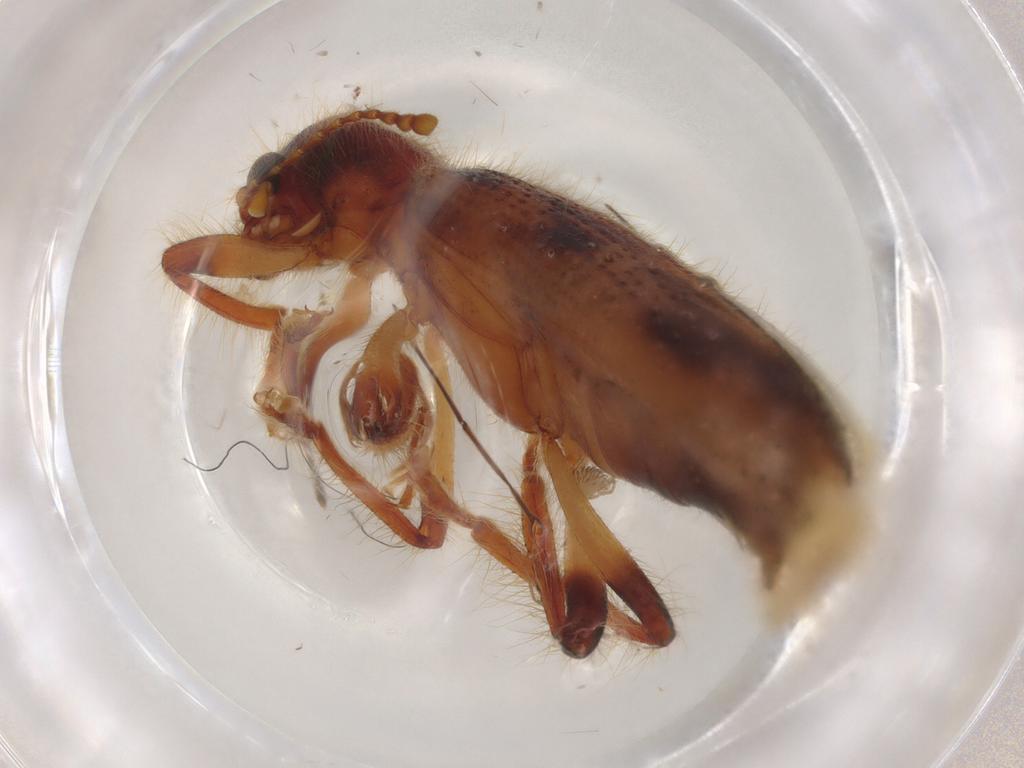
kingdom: Animalia
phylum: Arthropoda
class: Insecta
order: Coleoptera
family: Cleridae
